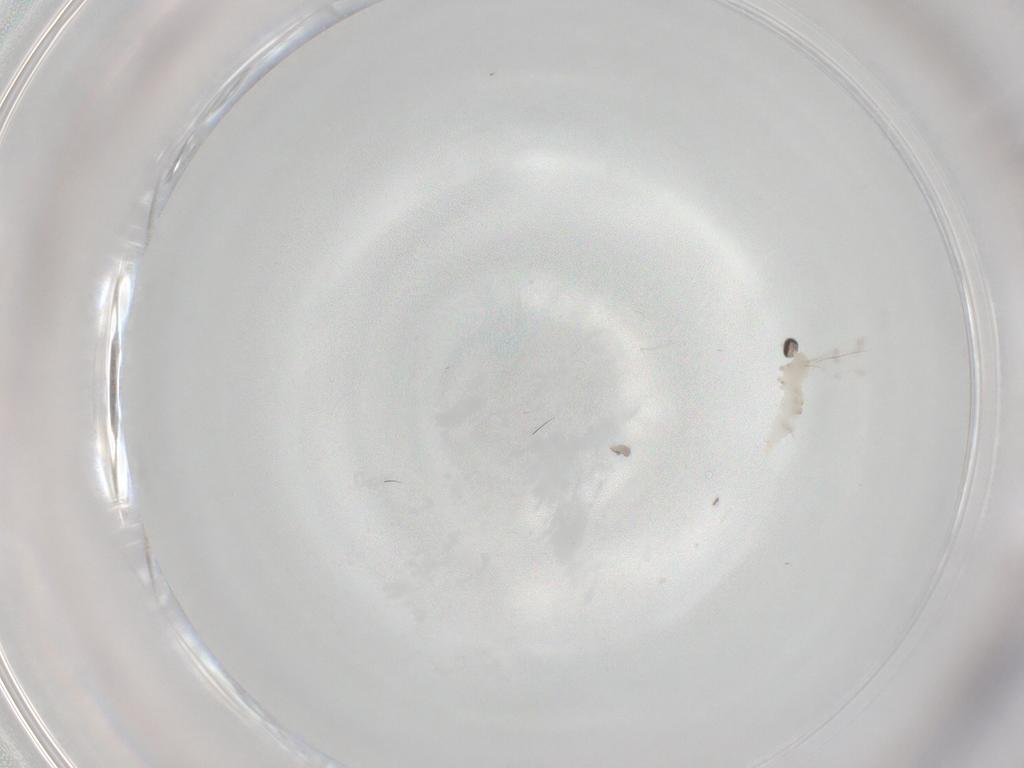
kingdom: Animalia
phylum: Arthropoda
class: Insecta
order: Diptera
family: Cecidomyiidae
